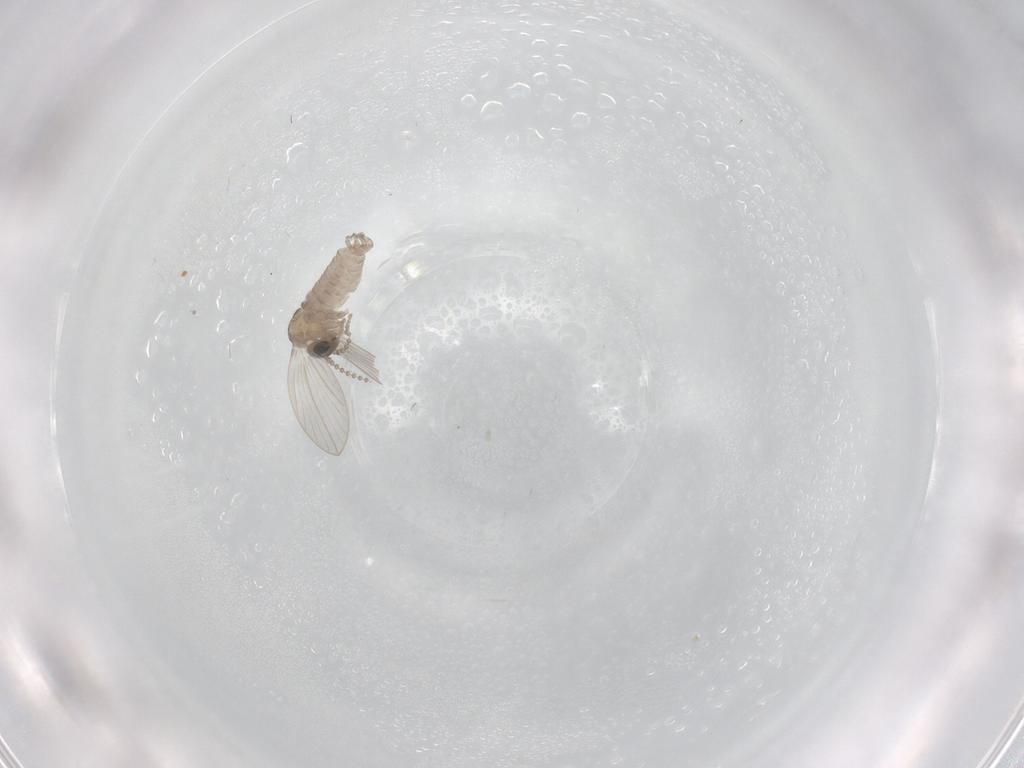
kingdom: Animalia
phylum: Arthropoda
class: Insecta
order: Diptera
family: Psychodidae
